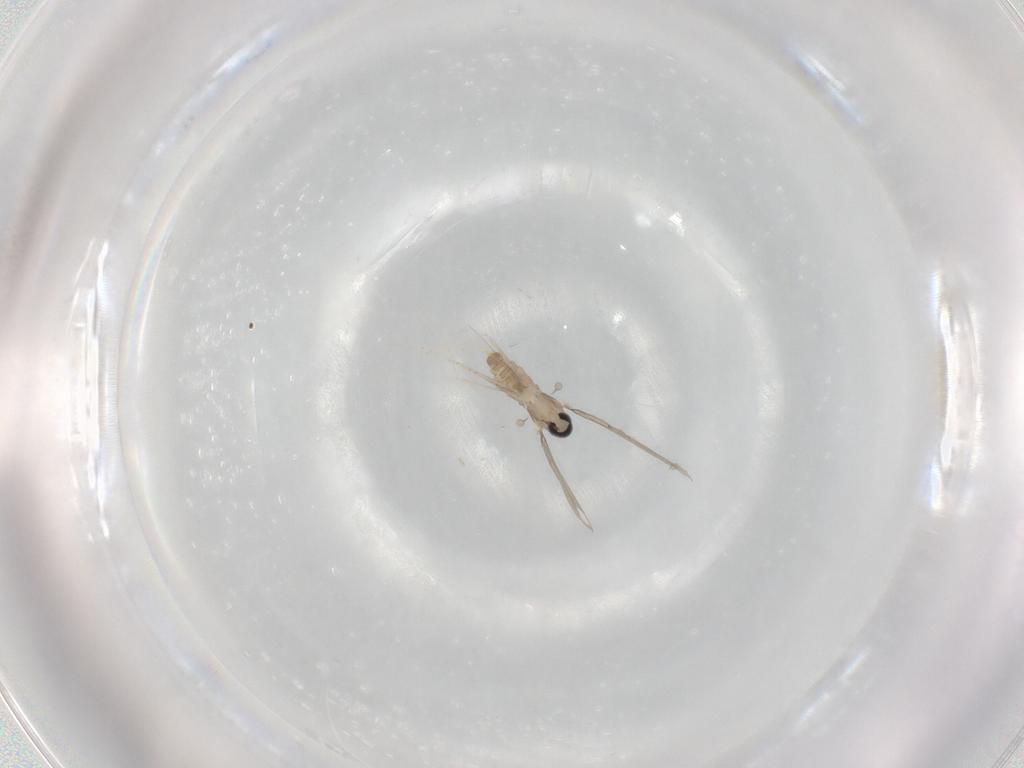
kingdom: Animalia
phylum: Arthropoda
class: Insecta
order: Diptera
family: Cecidomyiidae
